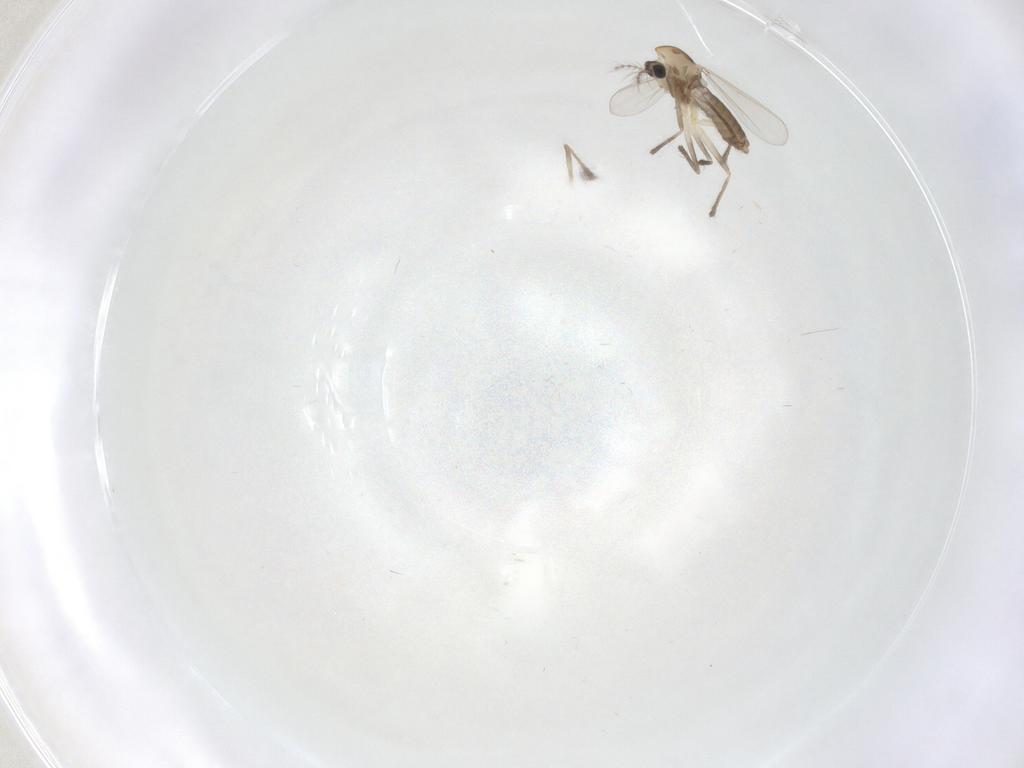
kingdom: Animalia
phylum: Arthropoda
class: Insecta
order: Diptera
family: Chironomidae
